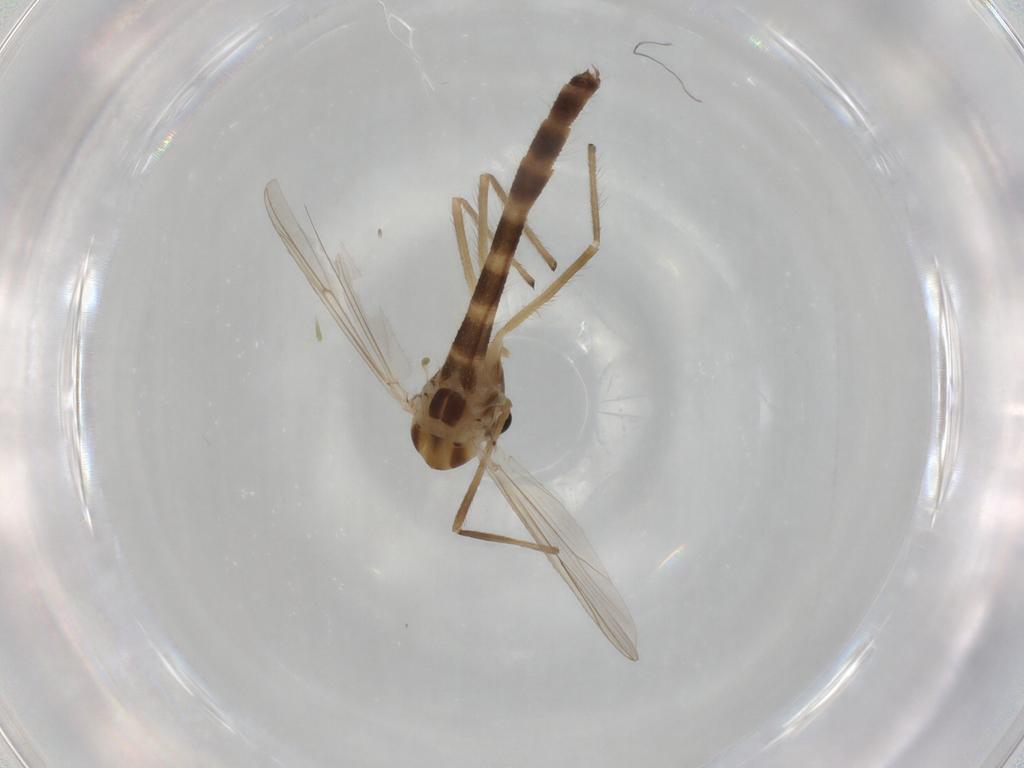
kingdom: Animalia
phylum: Arthropoda
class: Insecta
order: Diptera
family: Chironomidae
